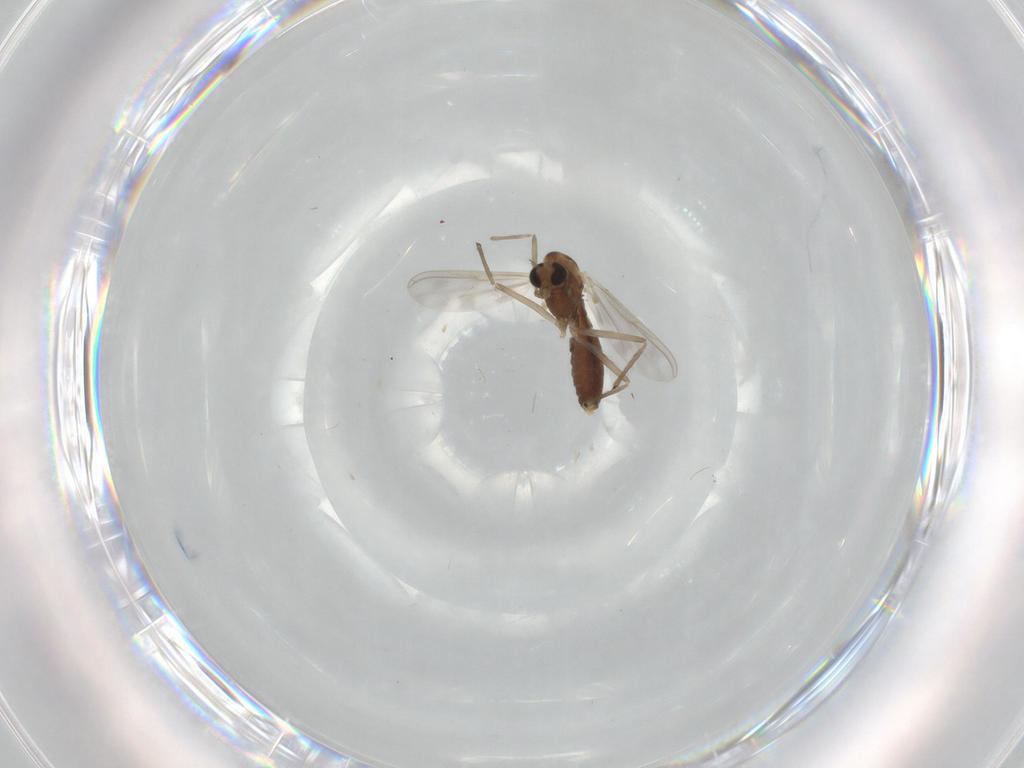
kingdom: Animalia
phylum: Arthropoda
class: Insecta
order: Diptera
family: Chironomidae
